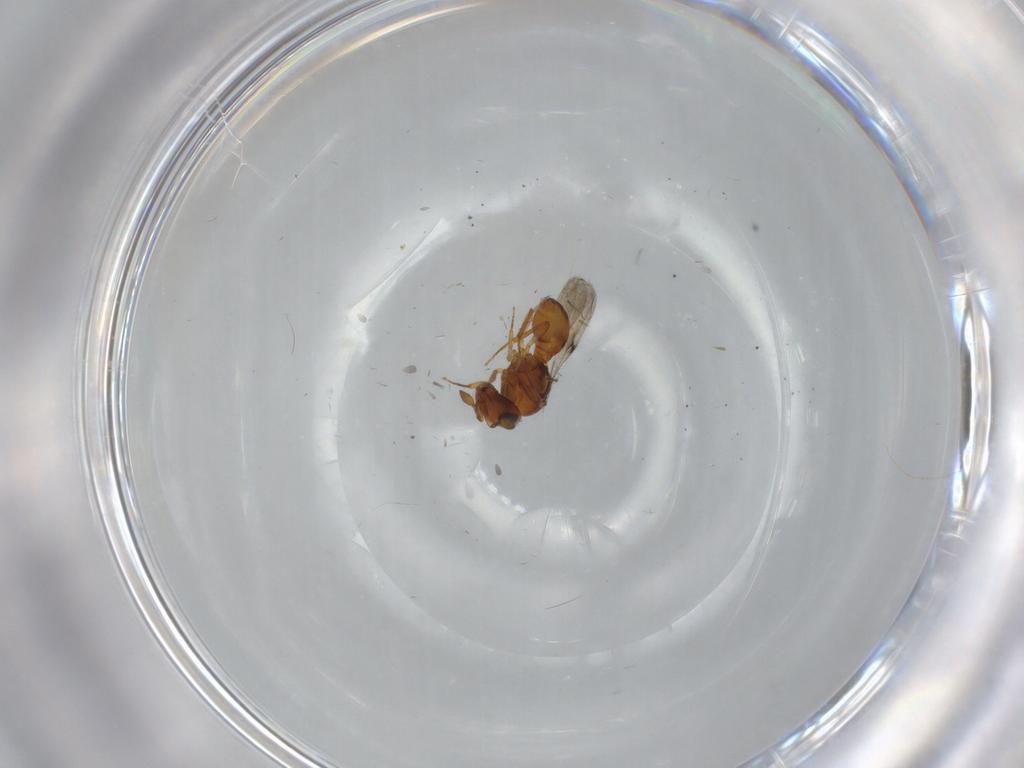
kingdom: Animalia
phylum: Arthropoda
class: Insecta
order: Hymenoptera
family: Scelionidae
